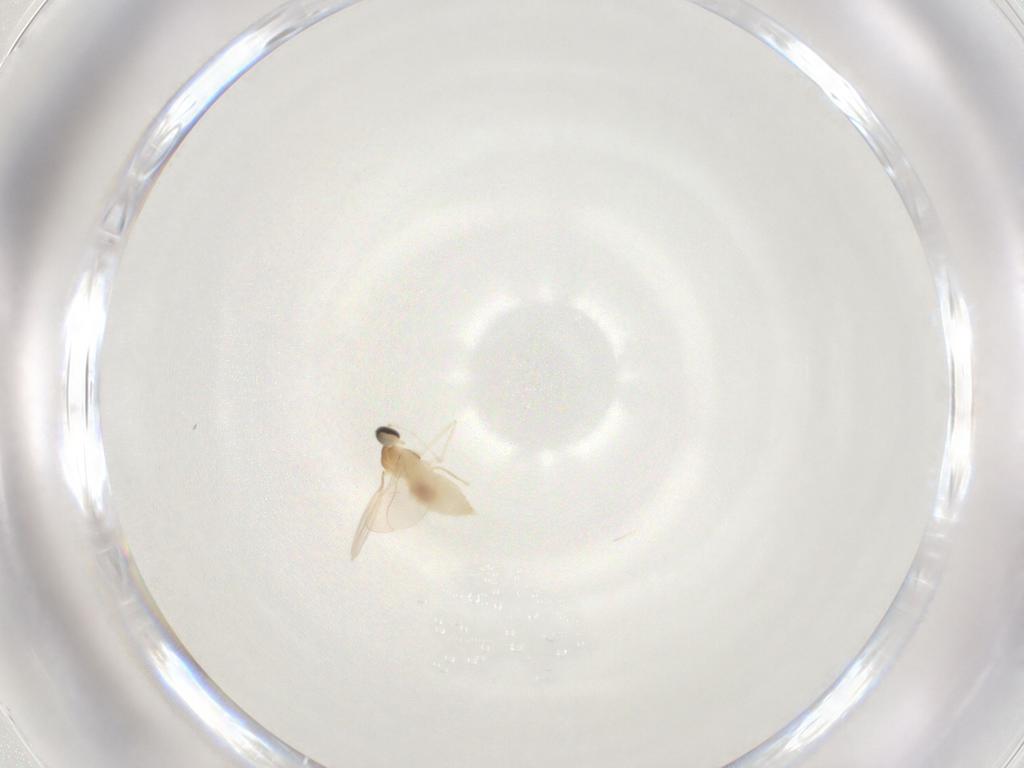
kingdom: Animalia
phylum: Arthropoda
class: Insecta
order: Diptera
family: Cecidomyiidae
